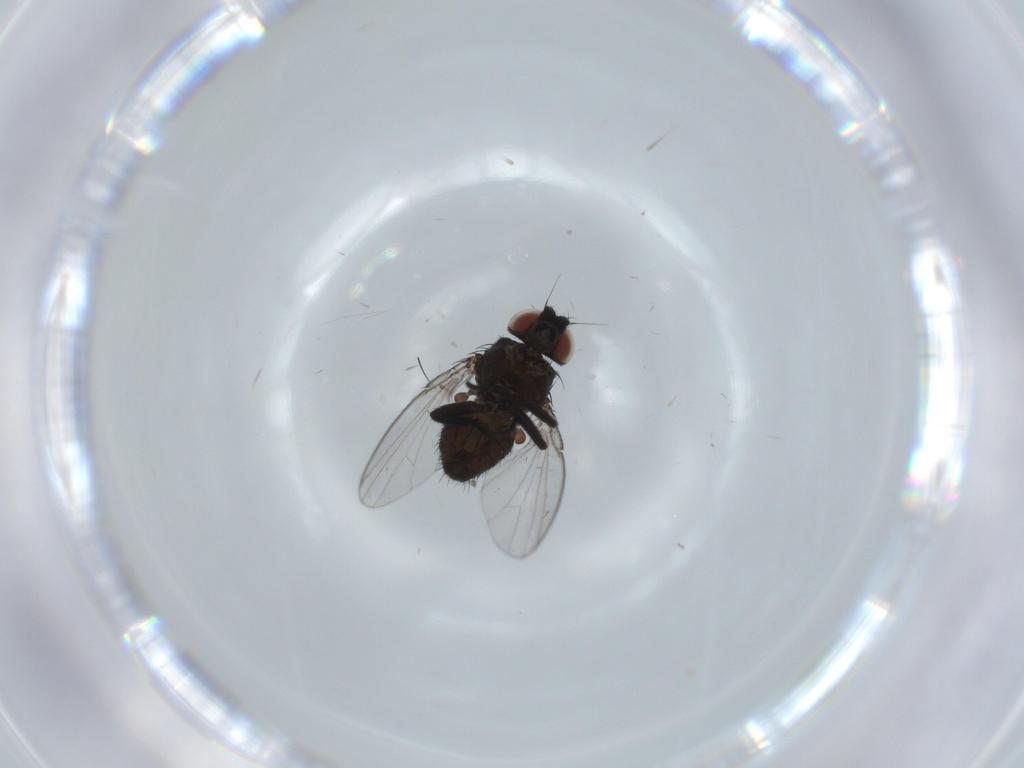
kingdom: Animalia
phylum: Arthropoda
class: Insecta
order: Diptera
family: Milichiidae
